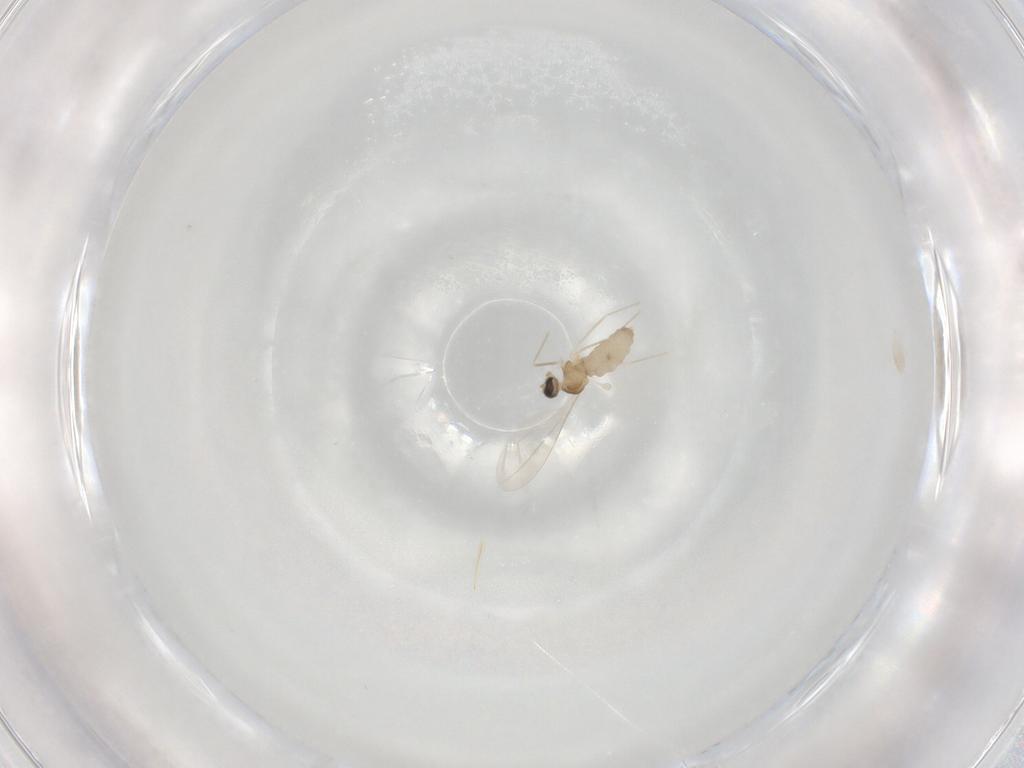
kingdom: Animalia
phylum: Arthropoda
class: Insecta
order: Diptera
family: Cecidomyiidae
